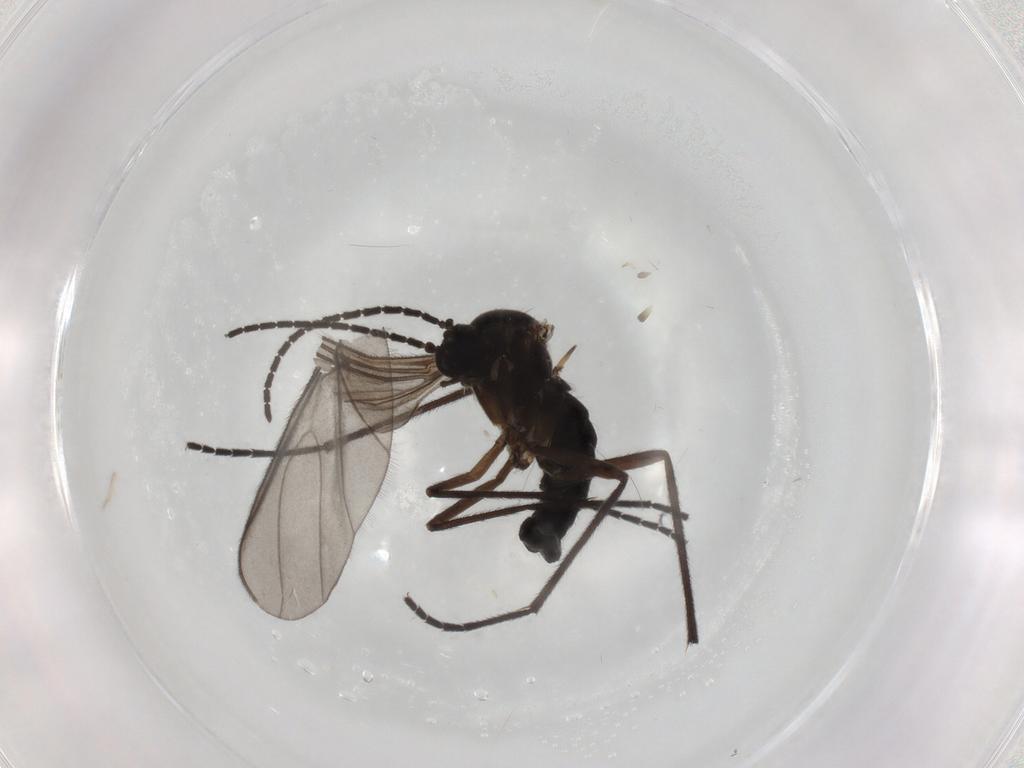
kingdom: Animalia
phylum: Arthropoda
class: Insecta
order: Diptera
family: Sciaridae
